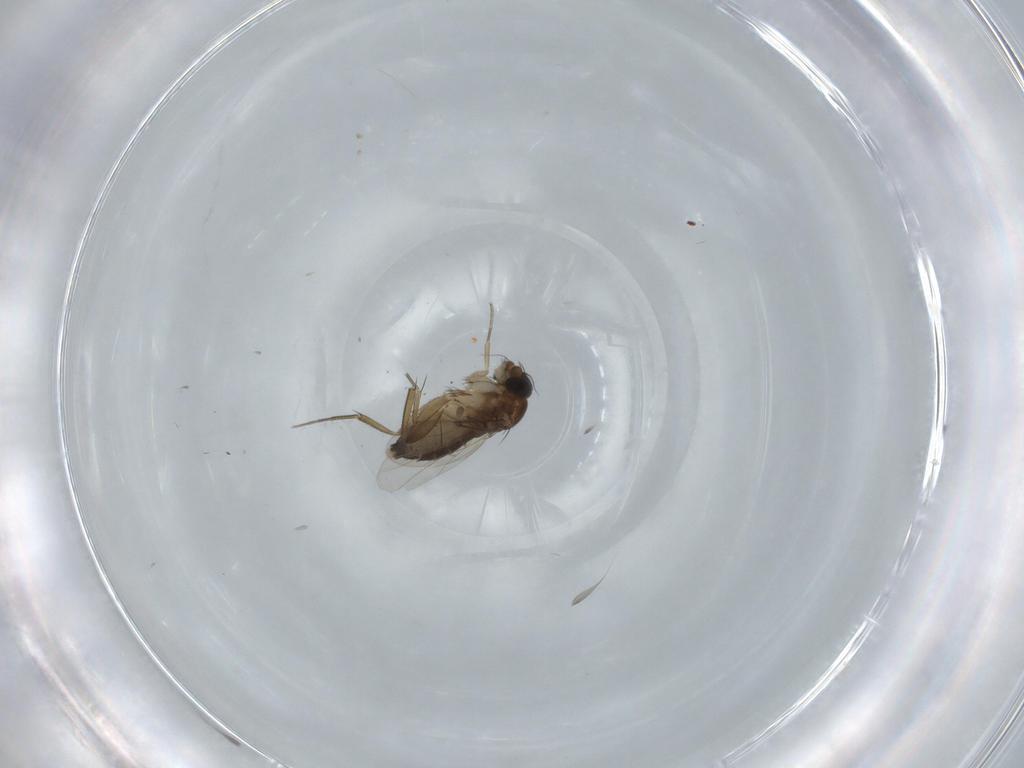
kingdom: Animalia
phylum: Arthropoda
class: Insecta
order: Diptera
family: Phoridae
